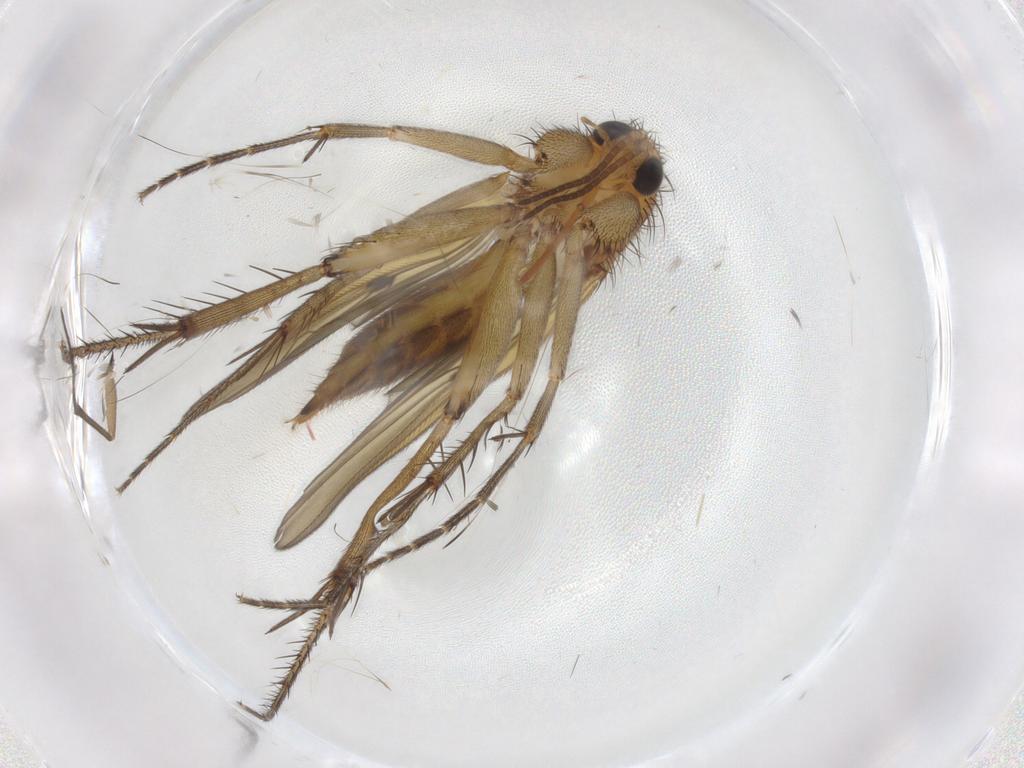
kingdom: Animalia
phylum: Arthropoda
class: Insecta
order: Diptera
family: Mycetophilidae
